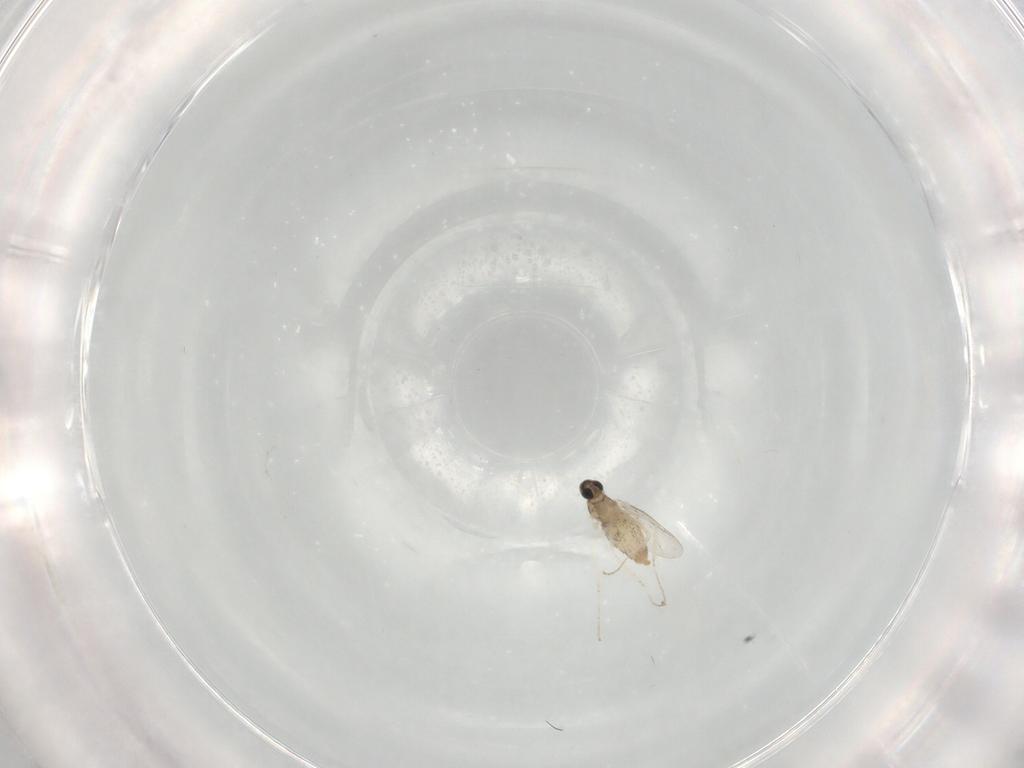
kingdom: Animalia
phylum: Arthropoda
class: Insecta
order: Diptera
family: Cecidomyiidae
